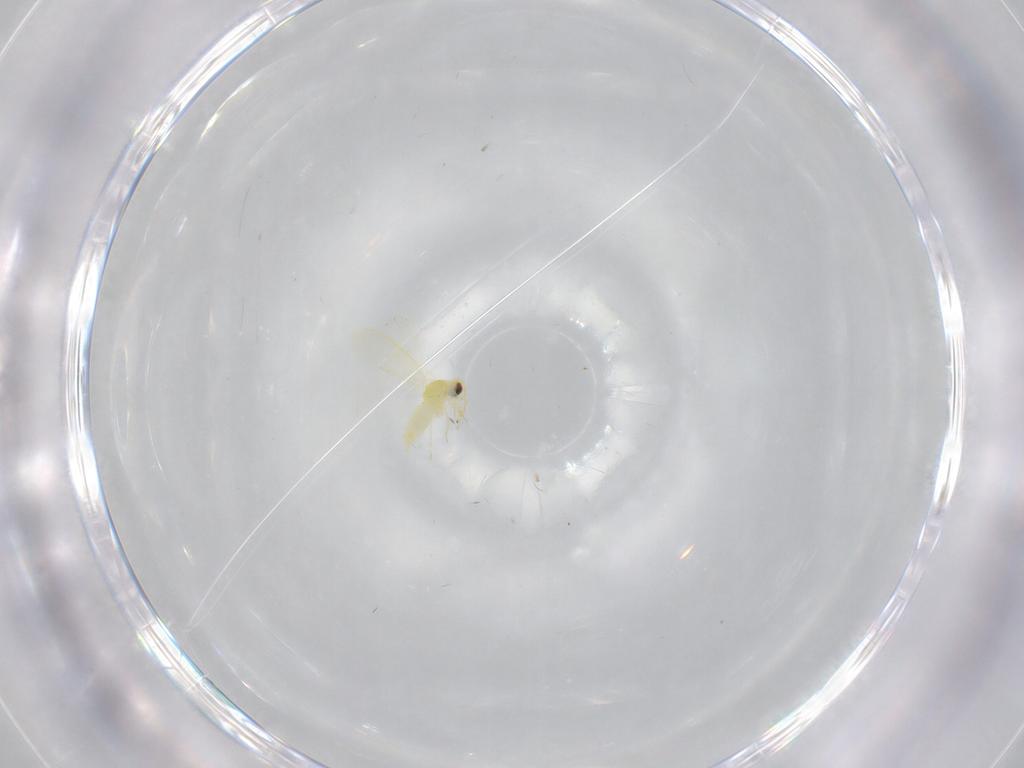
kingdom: Animalia
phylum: Arthropoda
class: Insecta
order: Hemiptera
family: Aleyrodidae
